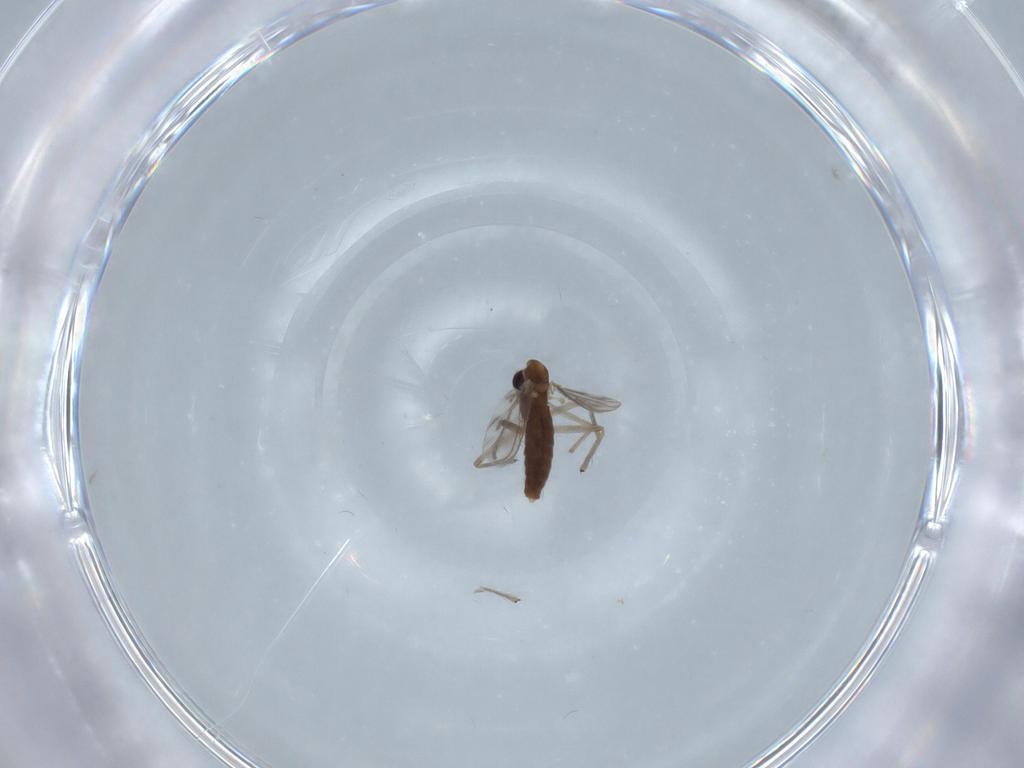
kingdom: Animalia
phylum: Arthropoda
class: Insecta
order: Diptera
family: Chironomidae
